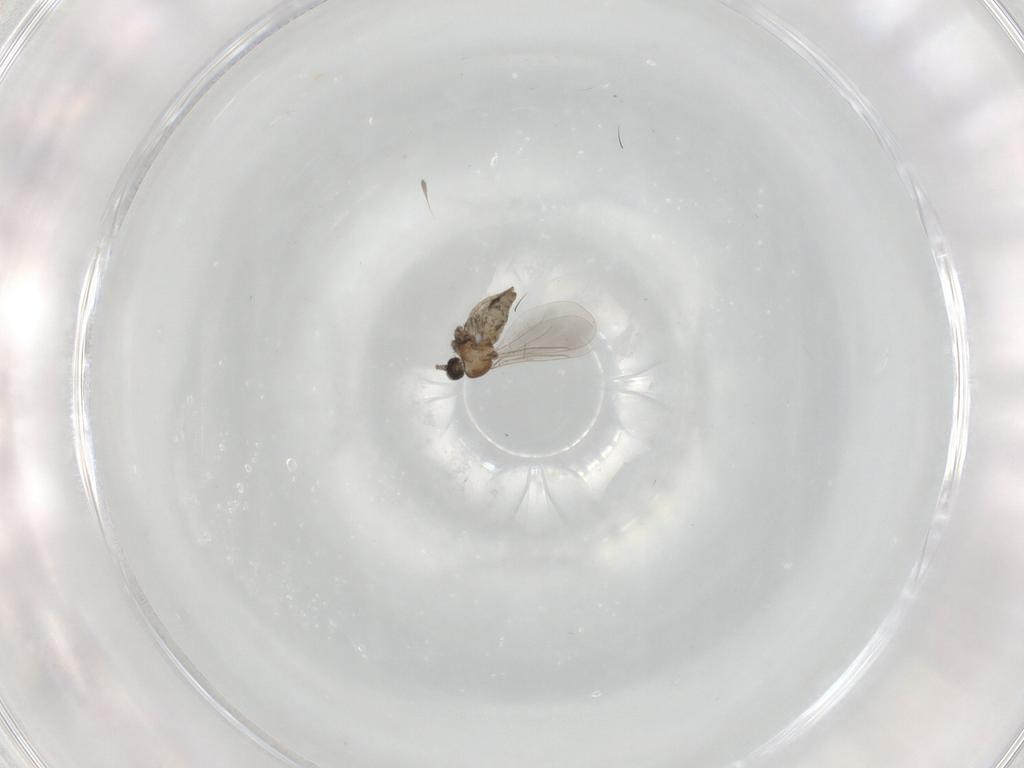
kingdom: Animalia
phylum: Arthropoda
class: Insecta
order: Diptera
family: Cecidomyiidae
